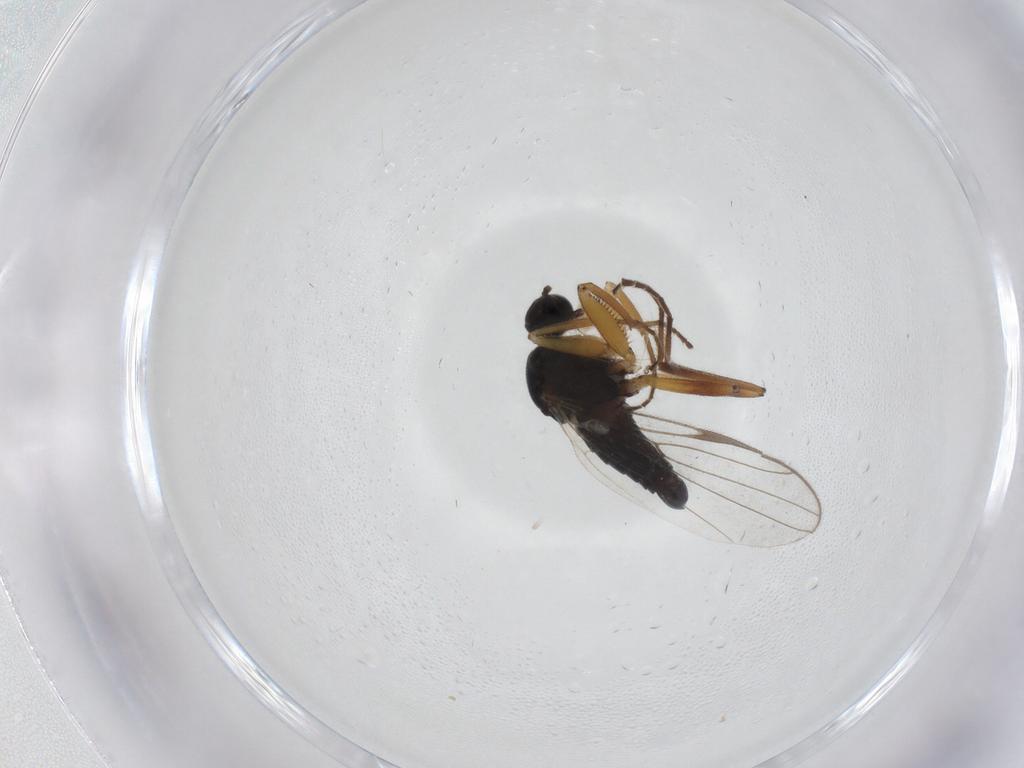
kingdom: Animalia
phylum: Arthropoda
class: Insecta
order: Diptera
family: Hybotidae
